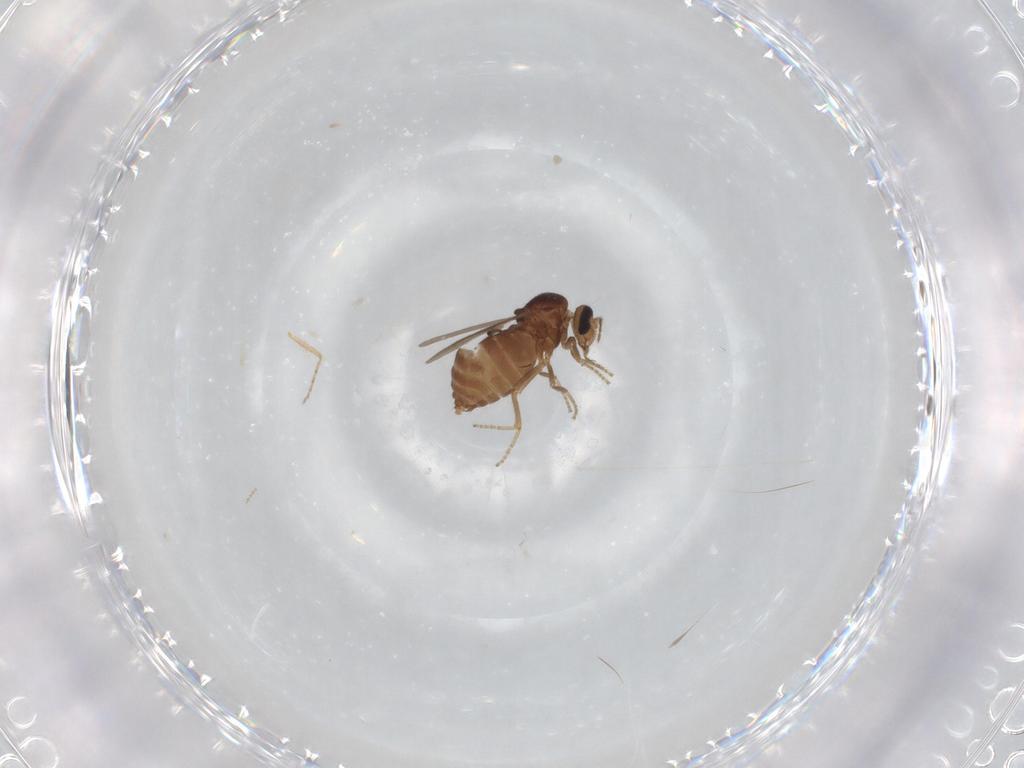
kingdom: Animalia
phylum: Arthropoda
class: Insecta
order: Diptera
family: Ceratopogonidae
